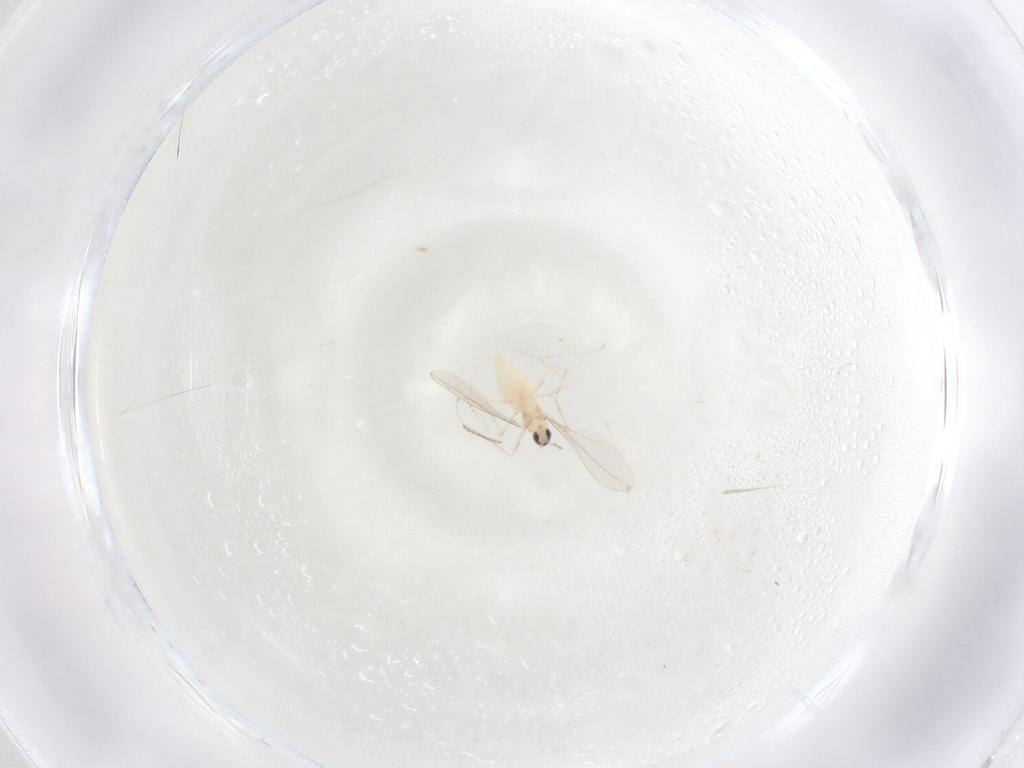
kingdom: Animalia
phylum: Arthropoda
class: Insecta
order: Diptera
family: Cecidomyiidae
